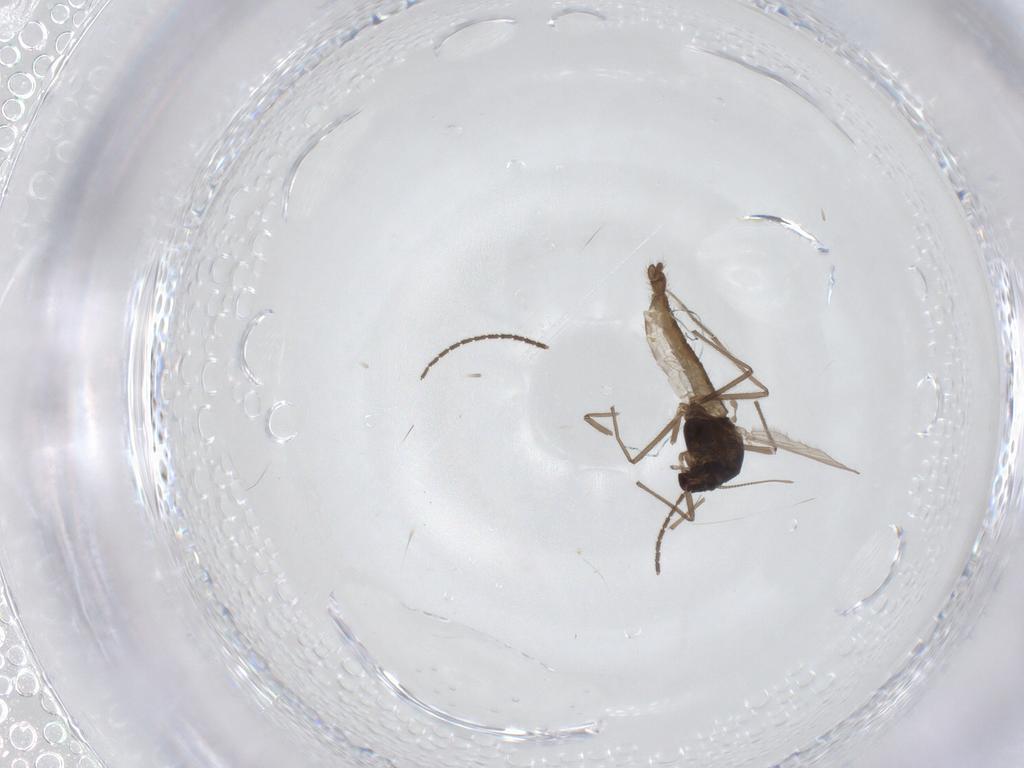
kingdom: Animalia
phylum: Arthropoda
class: Insecta
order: Diptera
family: Chironomidae
